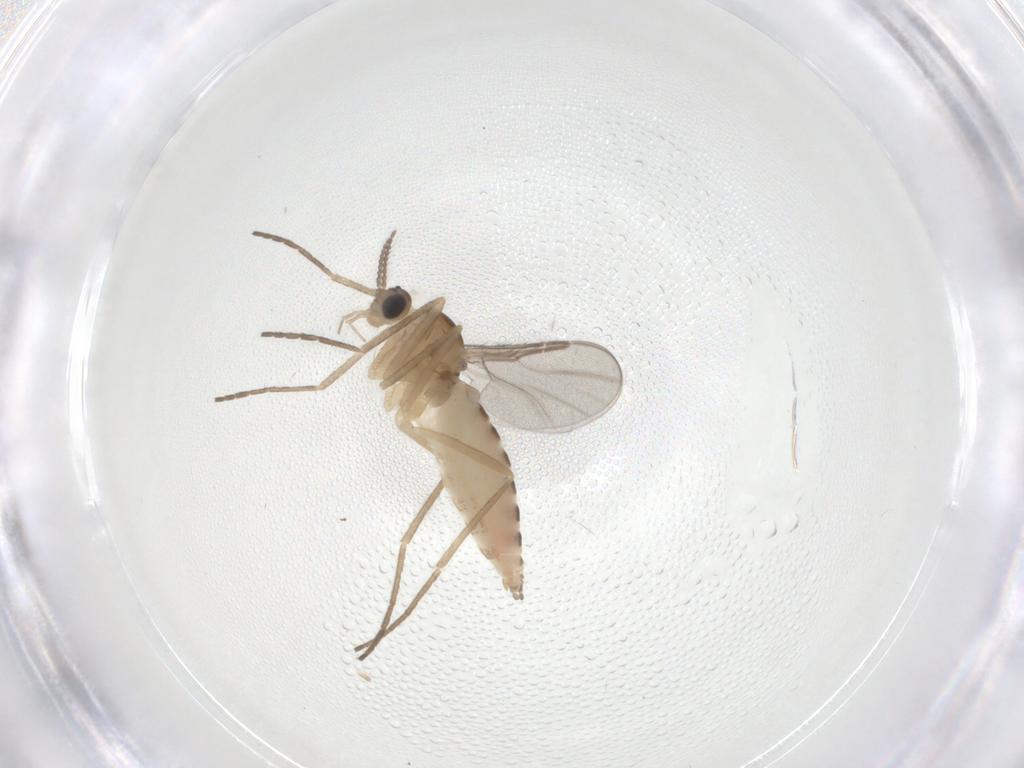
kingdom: Animalia
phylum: Arthropoda
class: Insecta
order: Diptera
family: Cecidomyiidae
